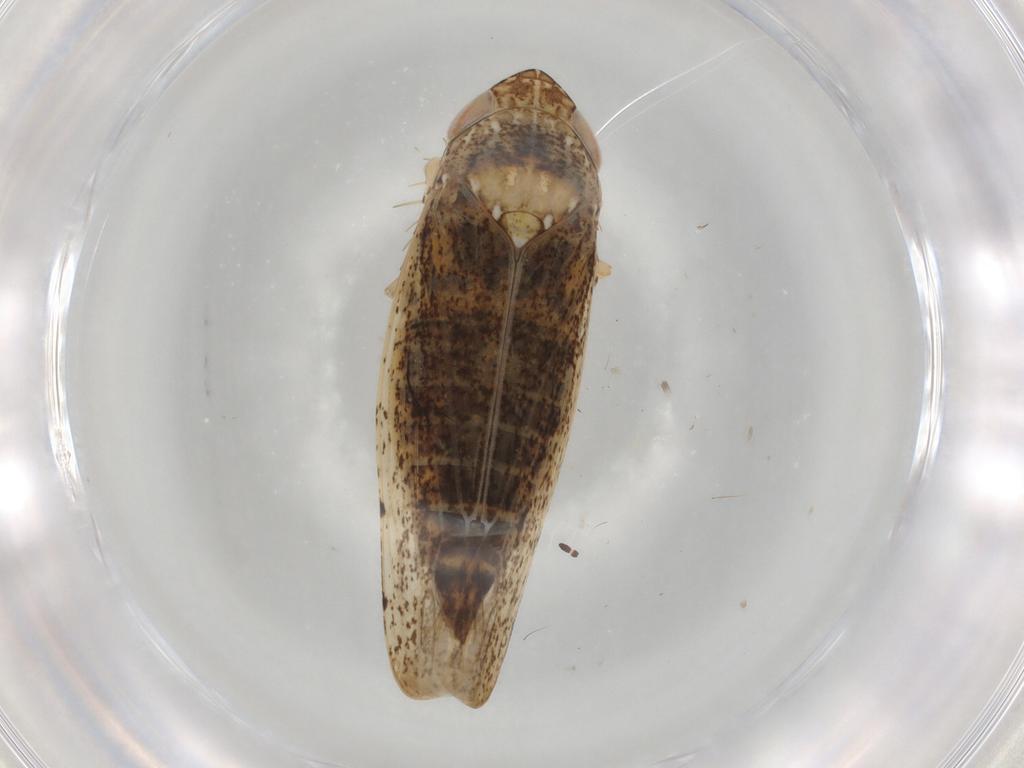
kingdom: Animalia
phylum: Arthropoda
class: Insecta
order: Hemiptera
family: Cicadellidae
